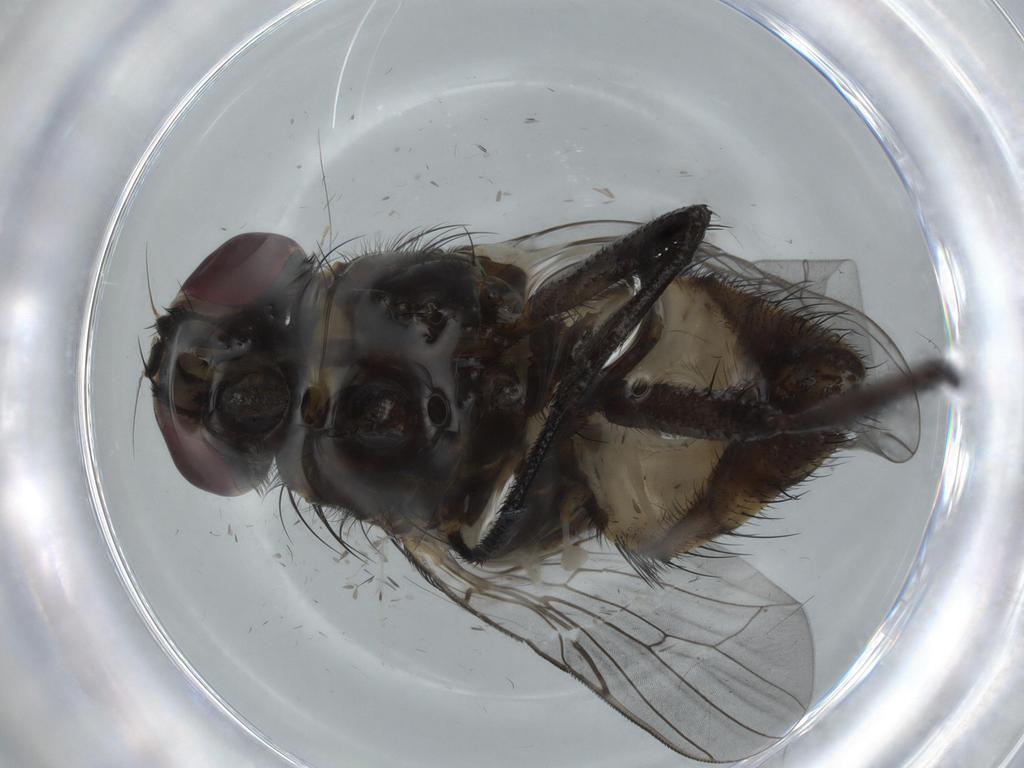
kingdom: Animalia
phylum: Arthropoda
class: Insecta
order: Diptera
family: Fannia
